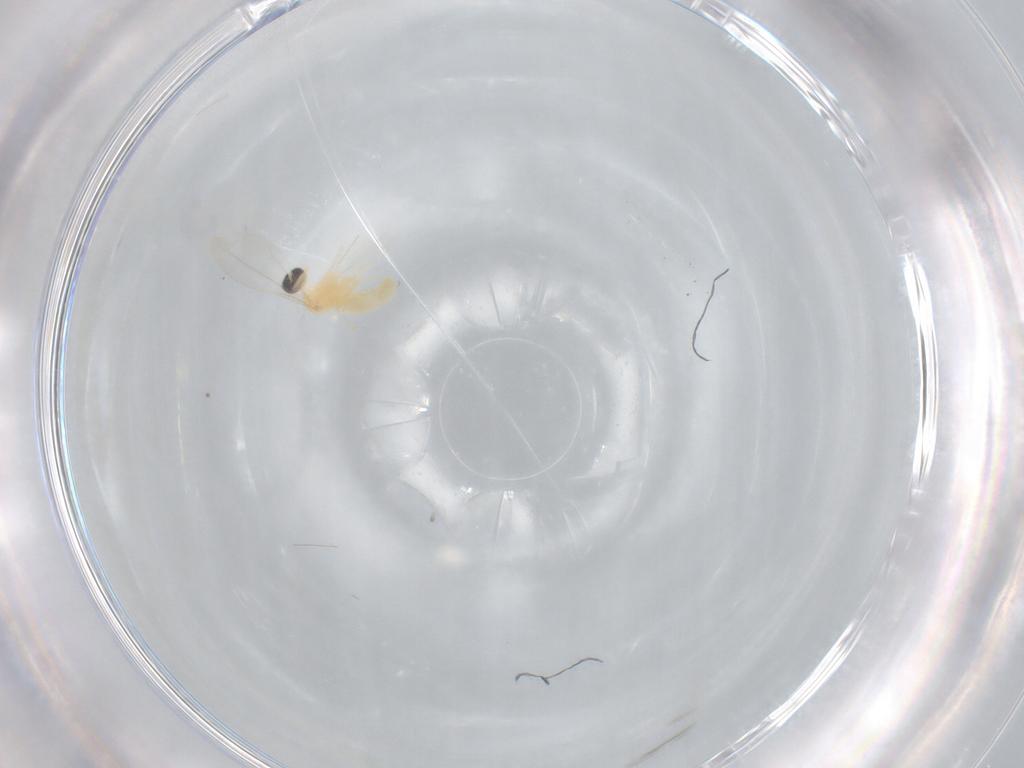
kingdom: Animalia
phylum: Arthropoda
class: Insecta
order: Diptera
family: Cecidomyiidae
